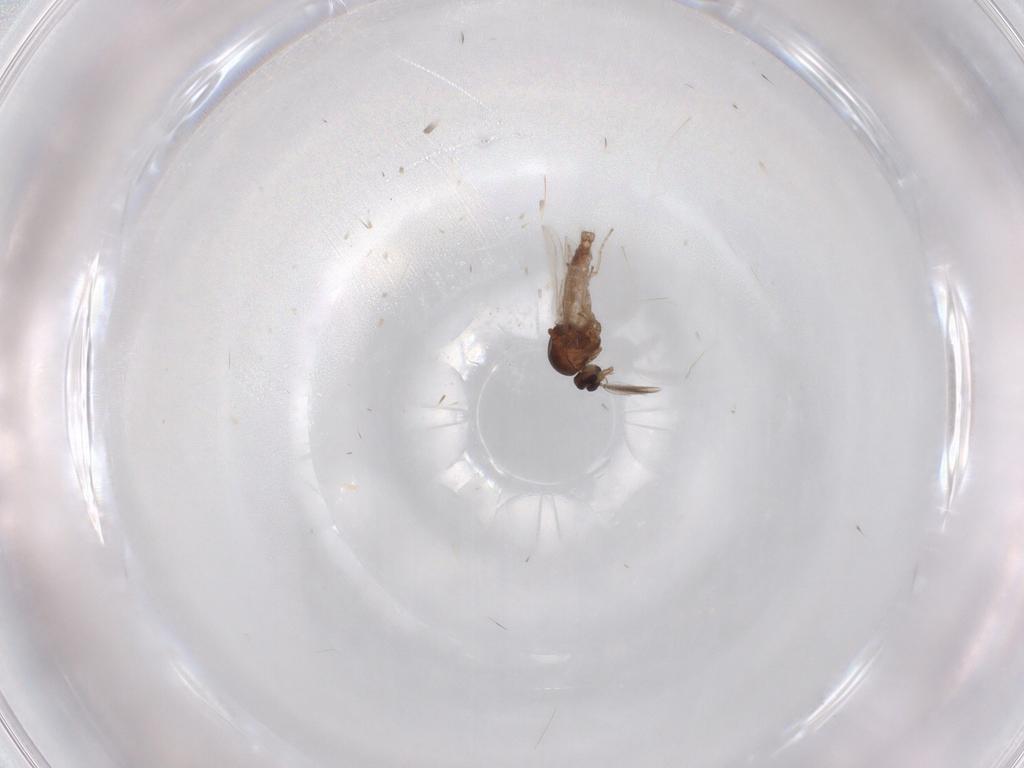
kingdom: Animalia
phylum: Arthropoda
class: Insecta
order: Diptera
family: Ceratopogonidae
